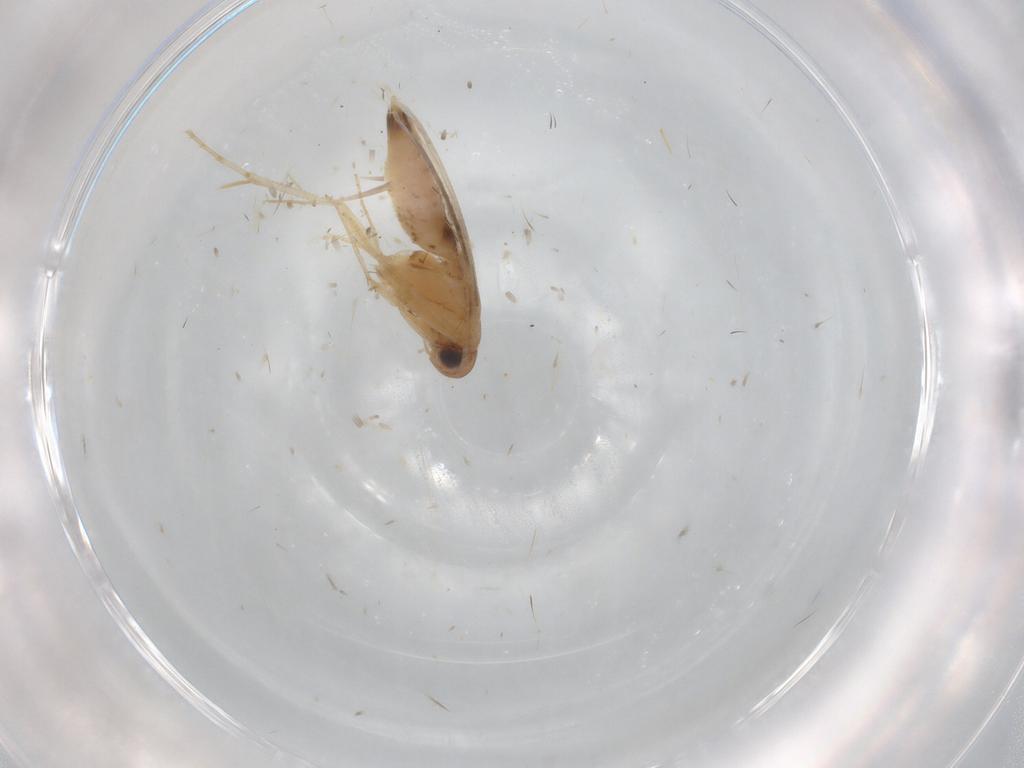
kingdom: Animalia
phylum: Arthropoda
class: Insecta
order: Lepidoptera
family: Crambidae
